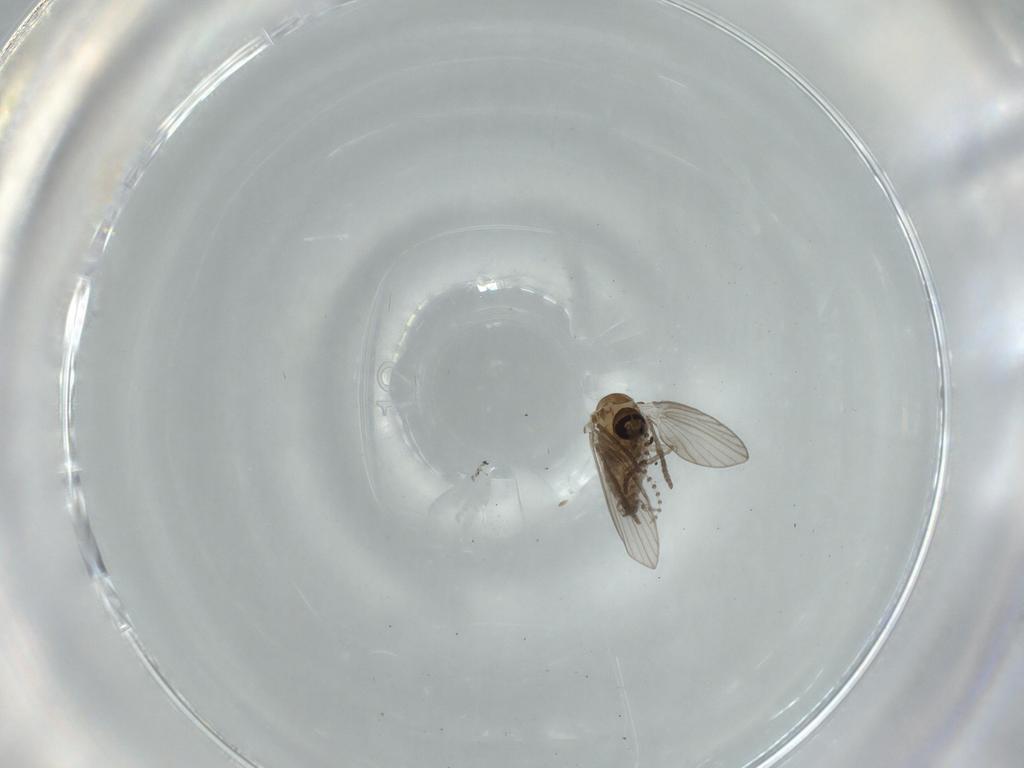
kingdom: Animalia
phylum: Arthropoda
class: Insecta
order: Diptera
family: Psychodidae
